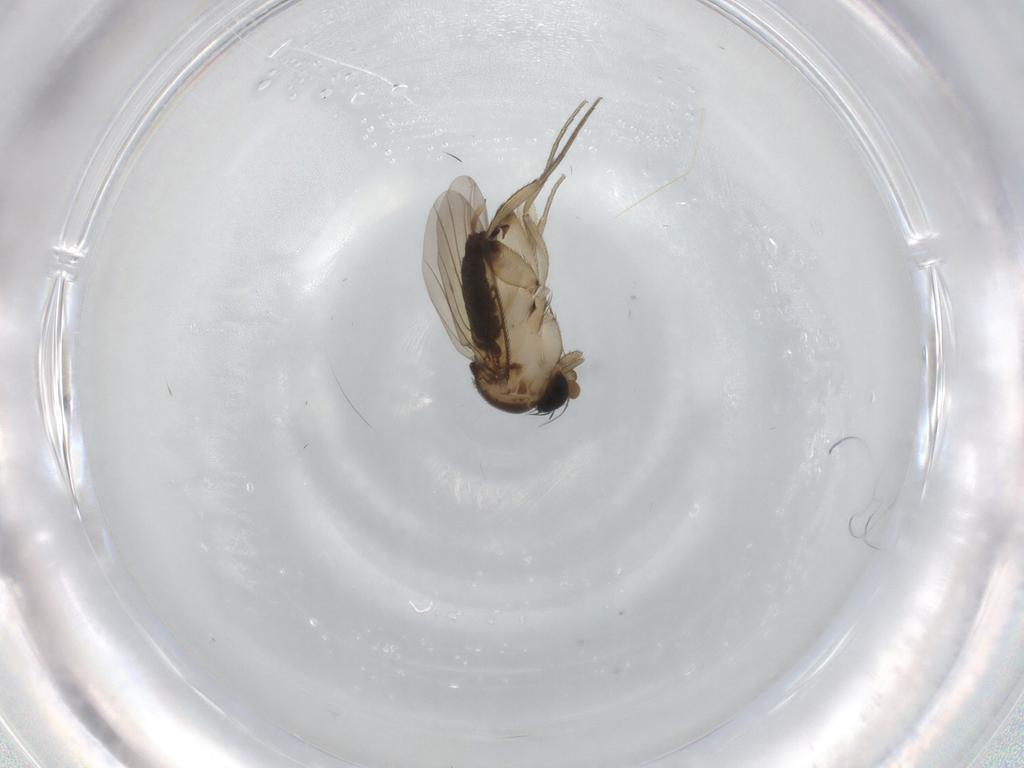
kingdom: Animalia
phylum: Arthropoda
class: Insecta
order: Diptera
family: Phoridae
